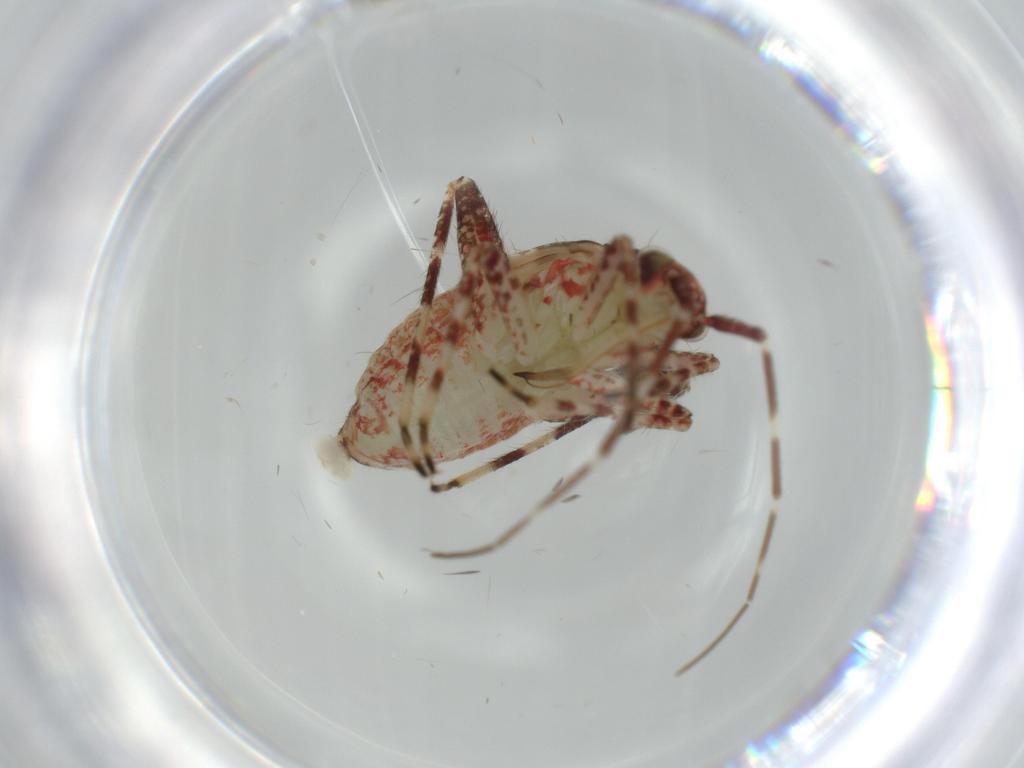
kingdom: Animalia
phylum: Arthropoda
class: Insecta
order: Hemiptera
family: Miridae
